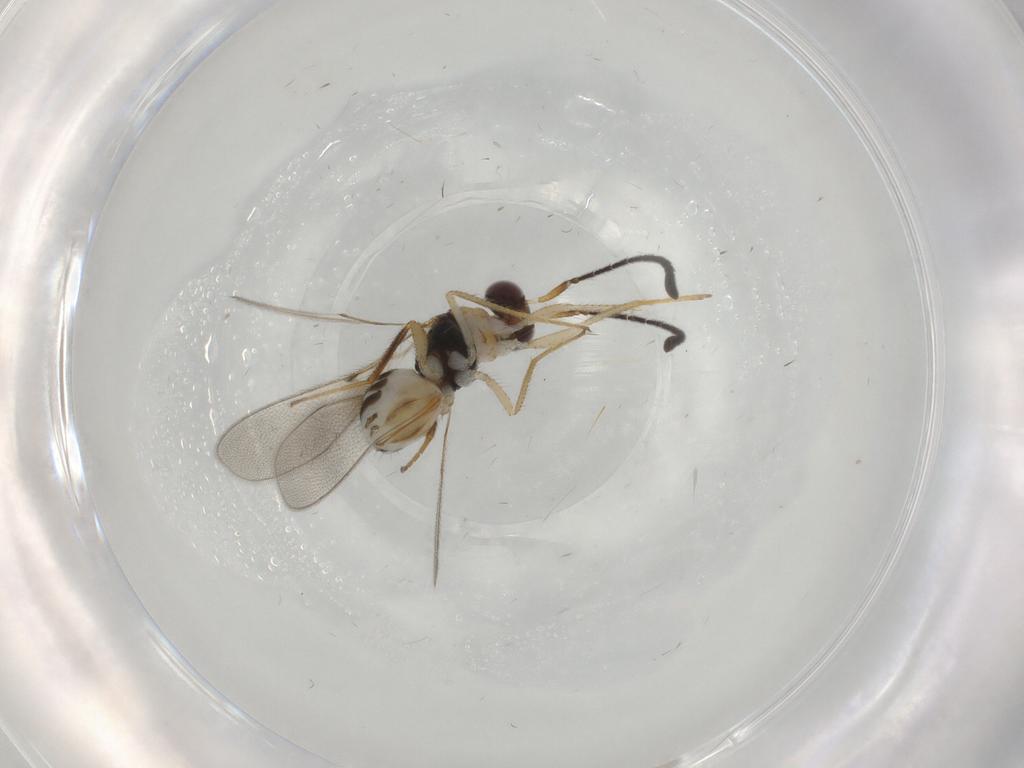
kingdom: Animalia
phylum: Arthropoda
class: Insecta
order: Hymenoptera
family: Mymaridae
